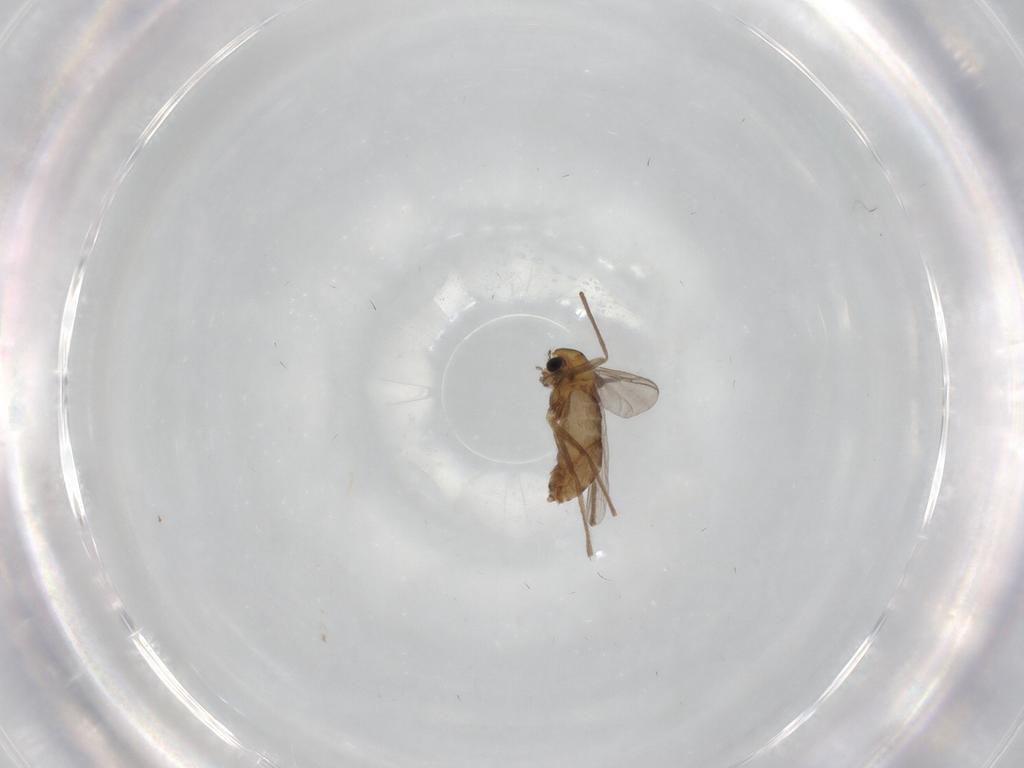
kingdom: Animalia
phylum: Arthropoda
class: Insecta
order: Diptera
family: Chironomidae
